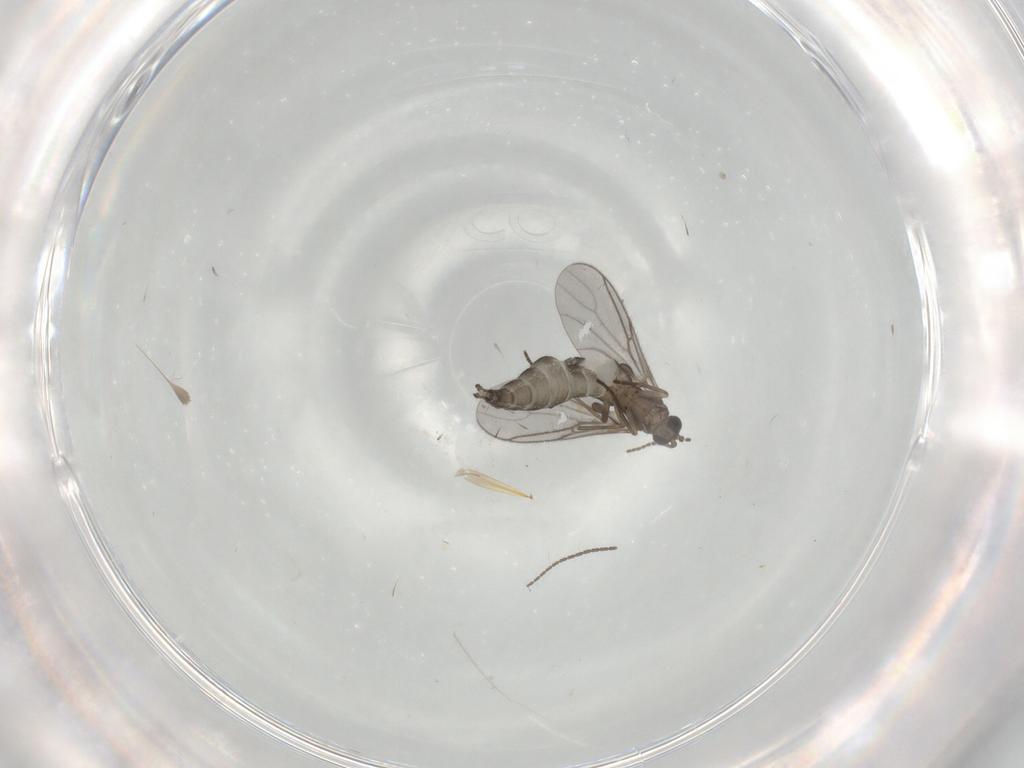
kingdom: Animalia
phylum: Arthropoda
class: Insecta
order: Diptera
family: Sciaridae
